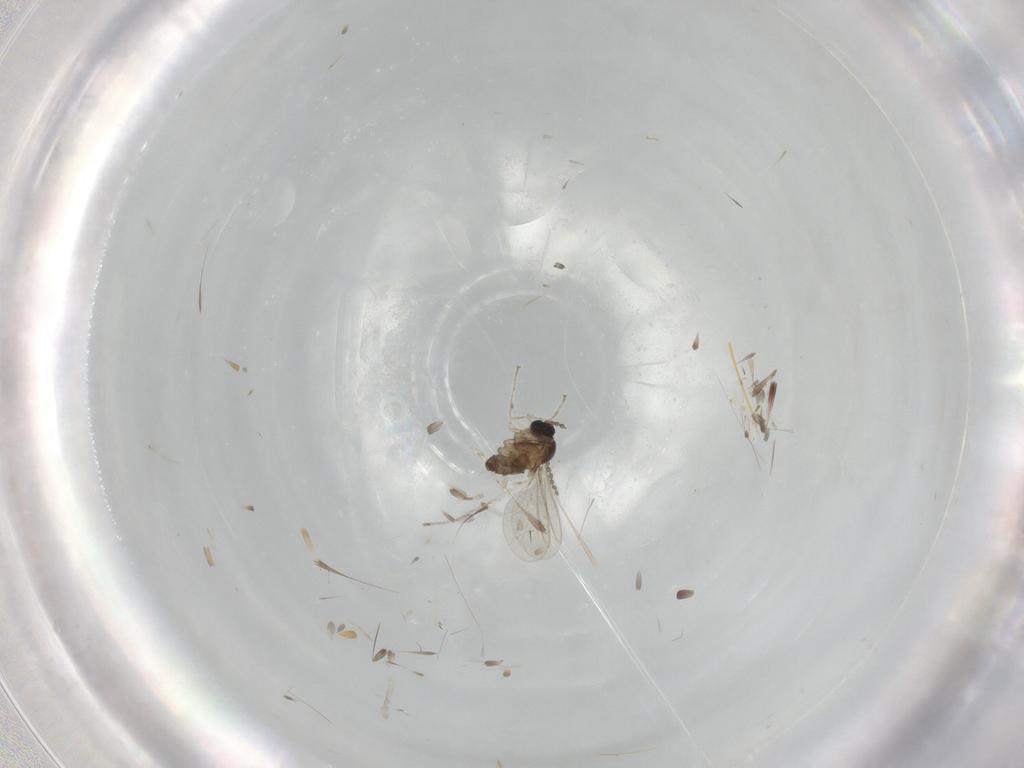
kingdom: Animalia
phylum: Arthropoda
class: Insecta
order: Diptera
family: Cecidomyiidae
